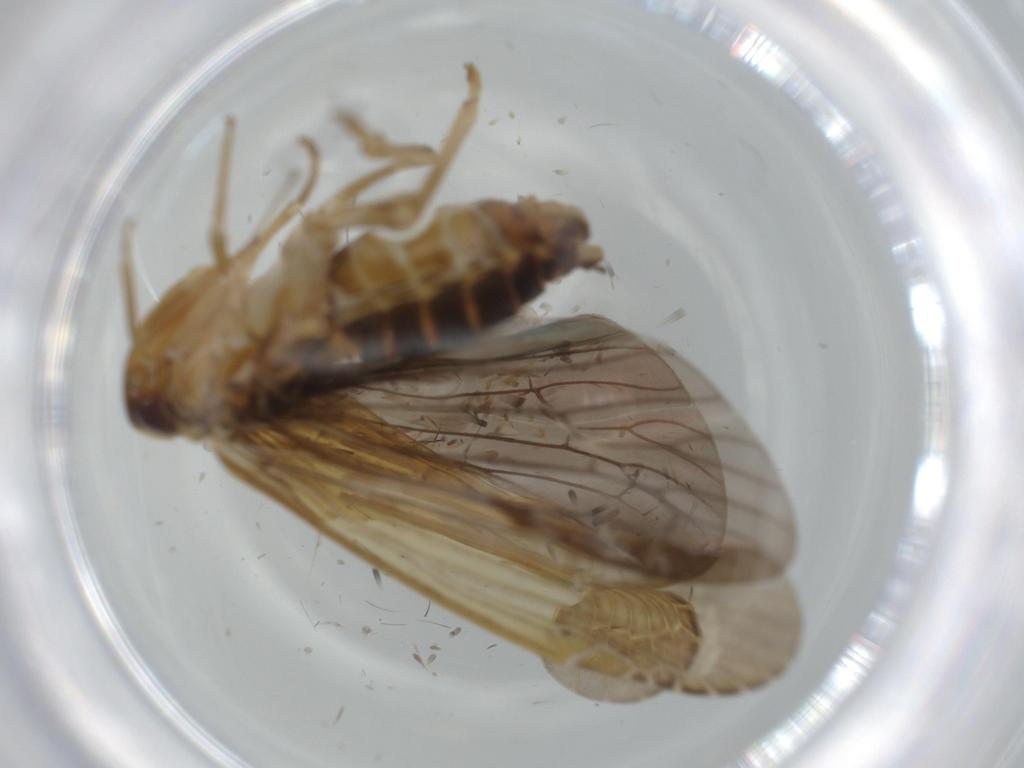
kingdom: Animalia
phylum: Arthropoda
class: Insecta
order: Hemiptera
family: Achilidae
